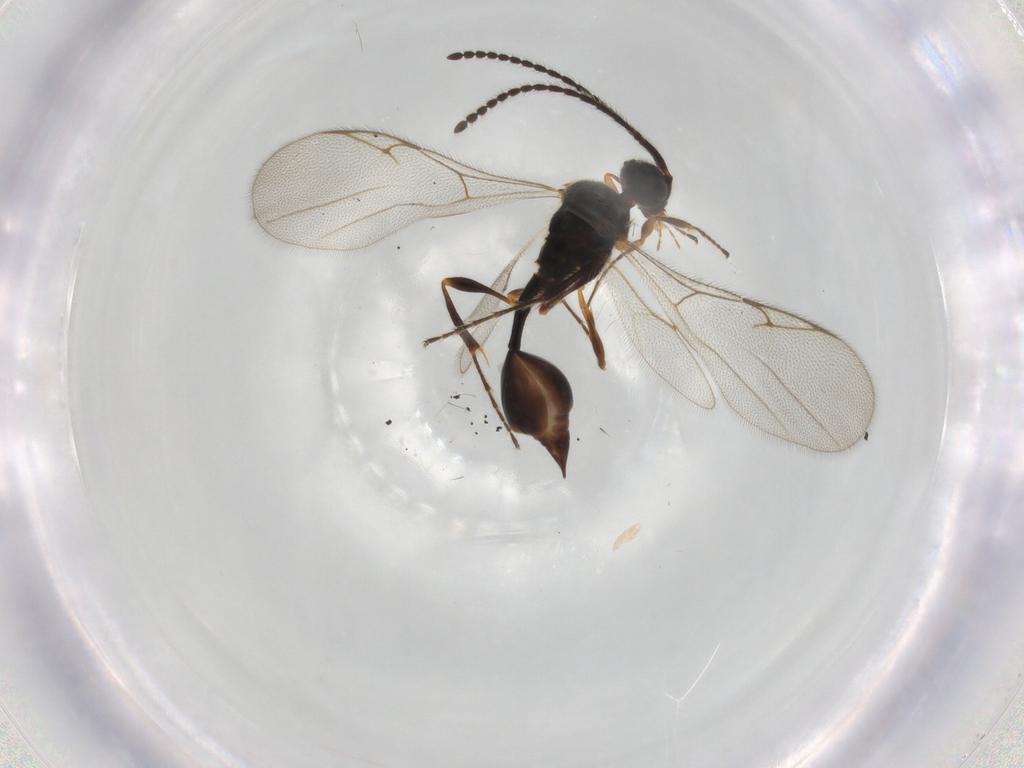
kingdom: Animalia
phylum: Arthropoda
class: Insecta
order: Hymenoptera
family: Diapriidae
